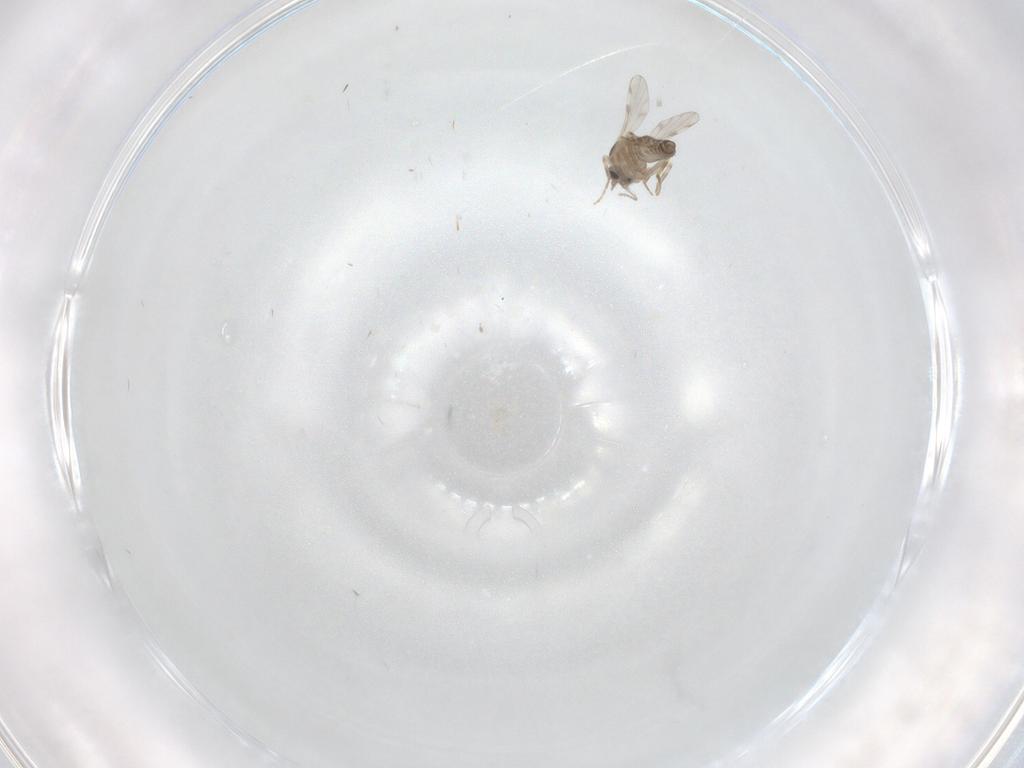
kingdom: Animalia
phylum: Arthropoda
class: Insecta
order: Diptera
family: Ceratopogonidae
